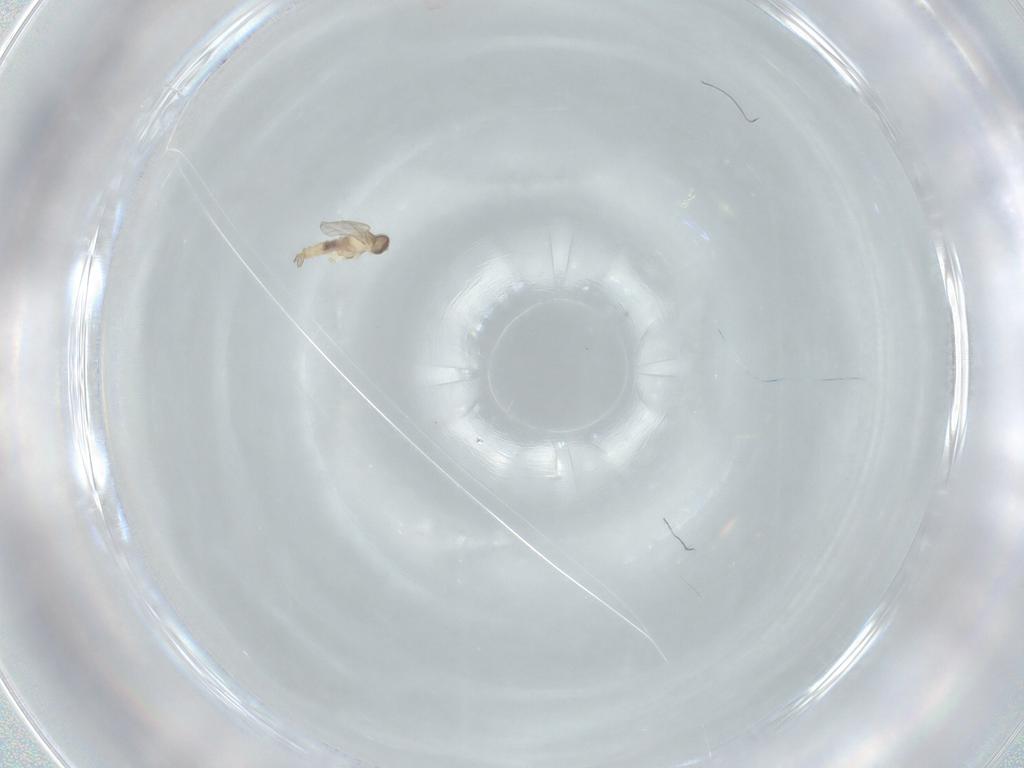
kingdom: Animalia
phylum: Arthropoda
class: Insecta
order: Diptera
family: Cecidomyiidae
